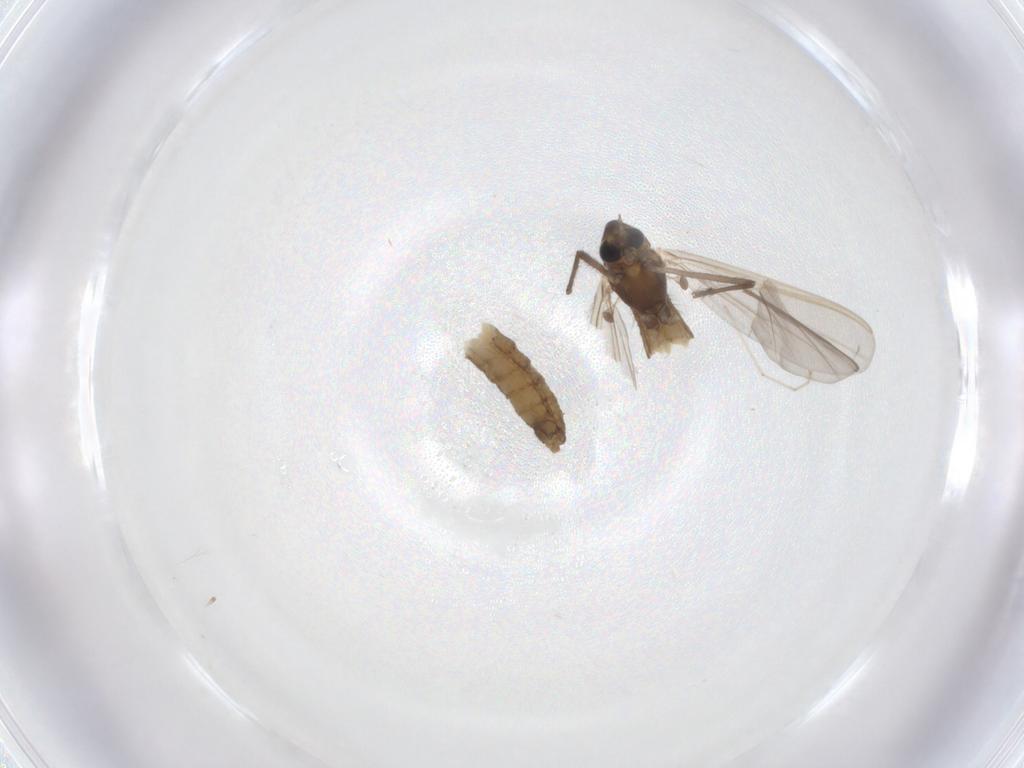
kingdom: Animalia
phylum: Arthropoda
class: Insecta
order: Diptera
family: Chironomidae
